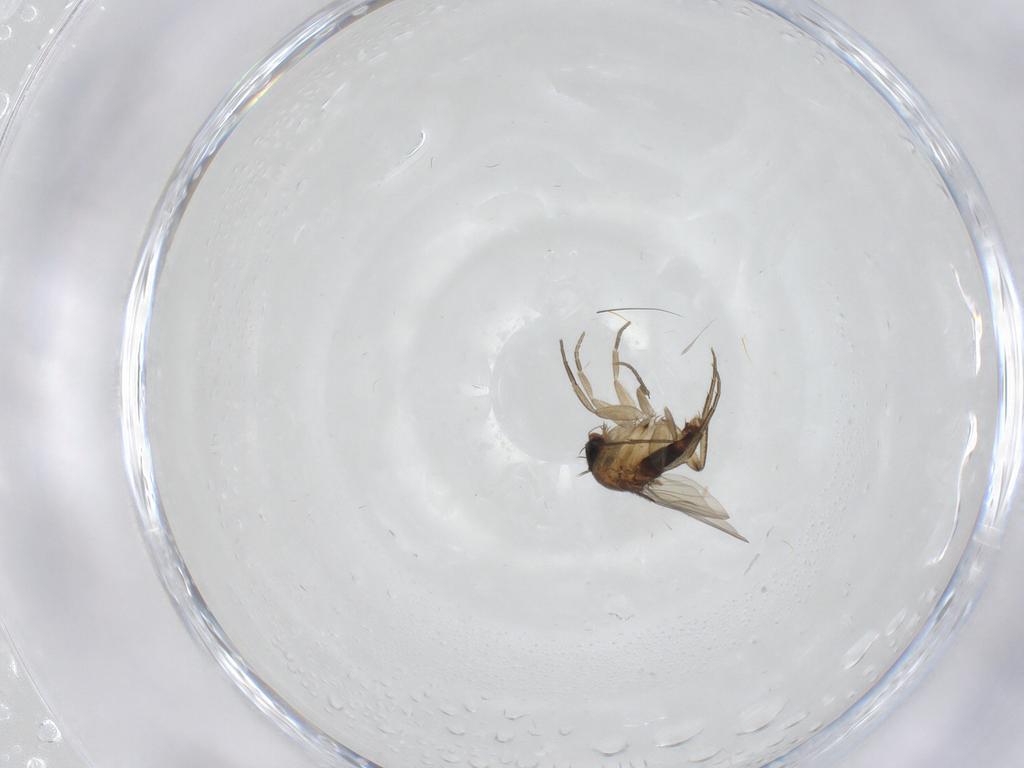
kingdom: Animalia
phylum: Arthropoda
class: Insecta
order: Diptera
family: Phoridae
